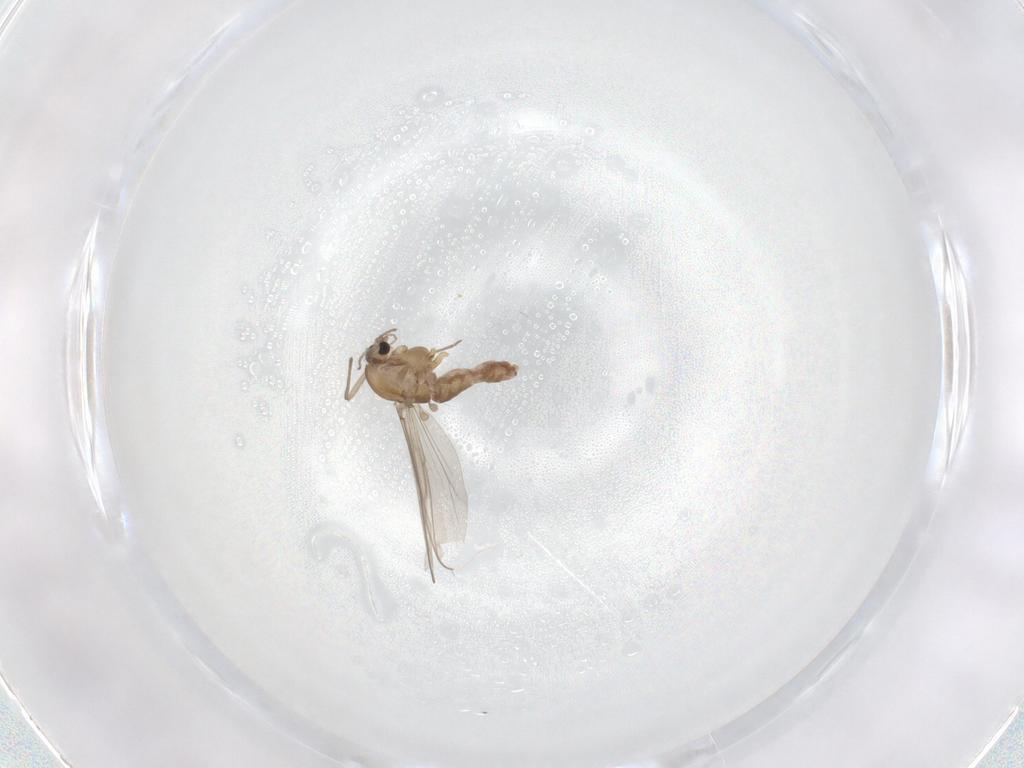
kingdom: Animalia
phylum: Arthropoda
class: Insecta
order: Diptera
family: Chironomidae
